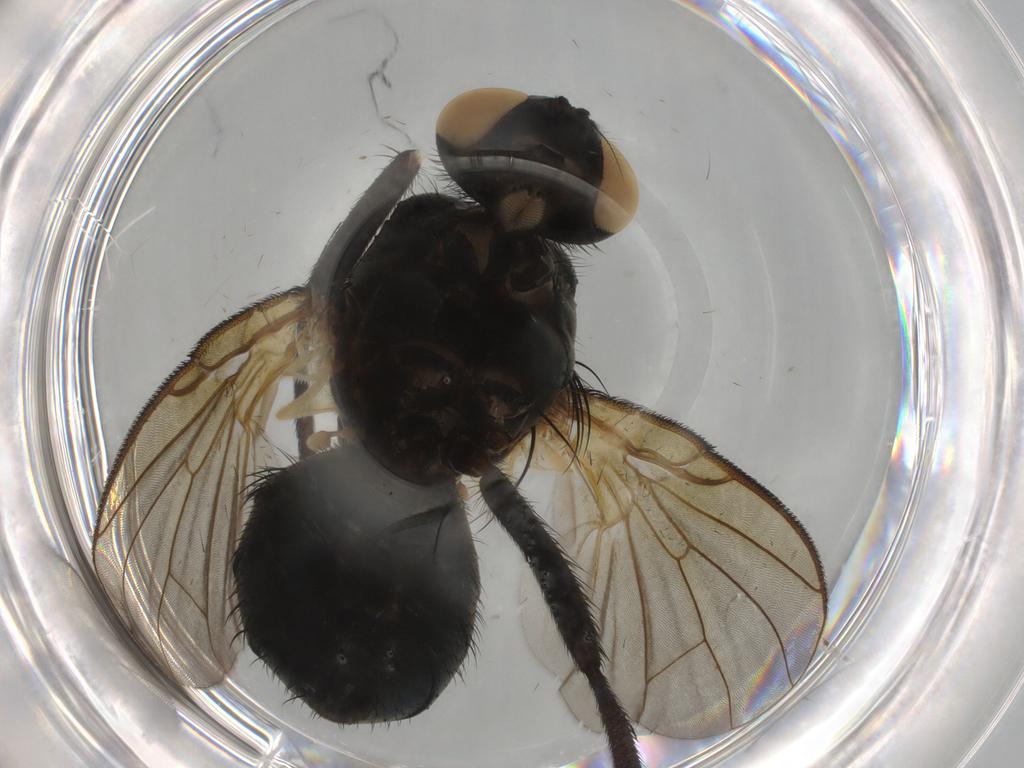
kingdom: Animalia
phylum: Arthropoda
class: Insecta
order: Diptera
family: Muscidae
